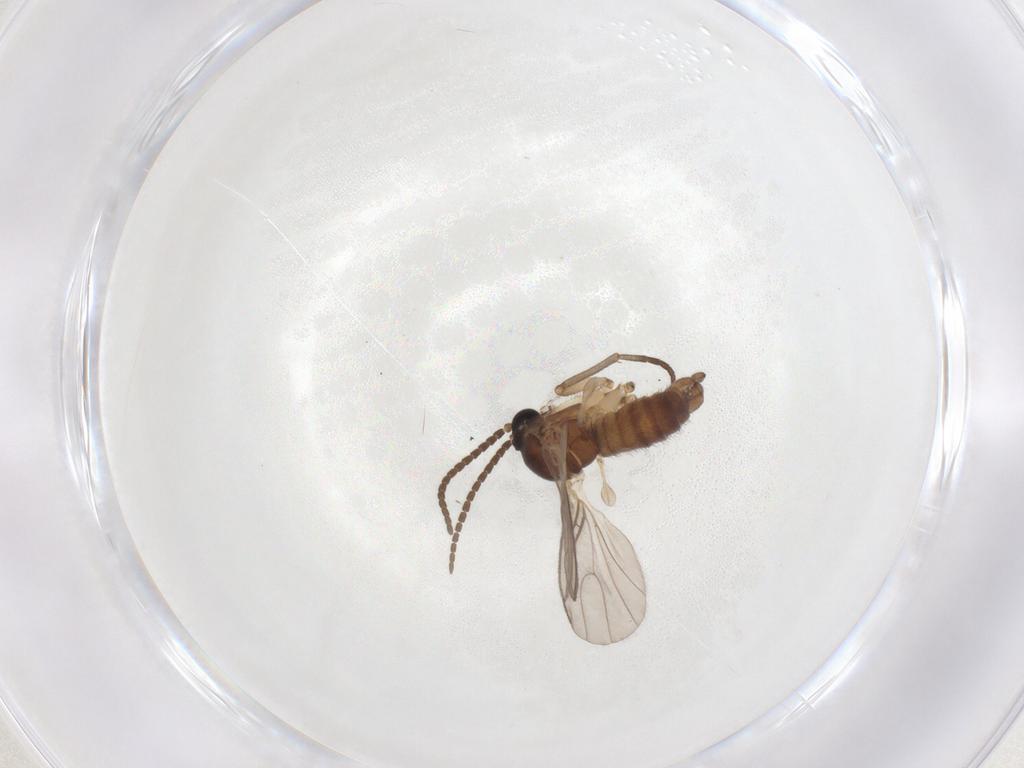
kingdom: Animalia
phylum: Arthropoda
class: Insecta
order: Diptera
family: Sciaridae
